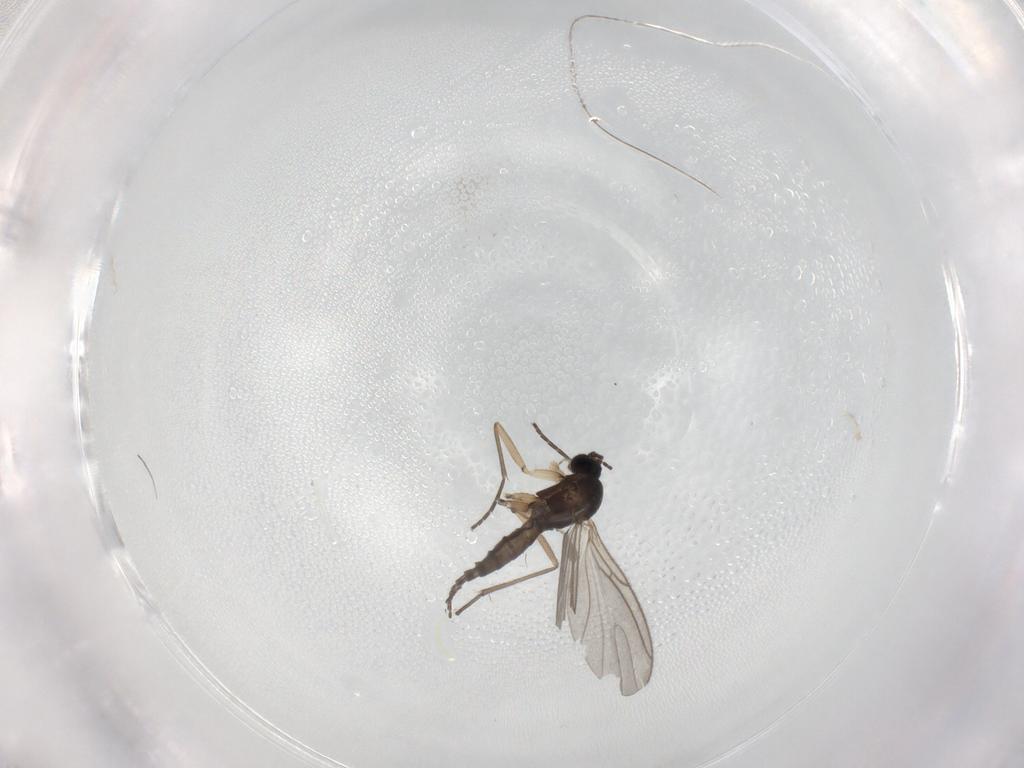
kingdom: Animalia
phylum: Arthropoda
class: Insecta
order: Diptera
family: Sciaridae
